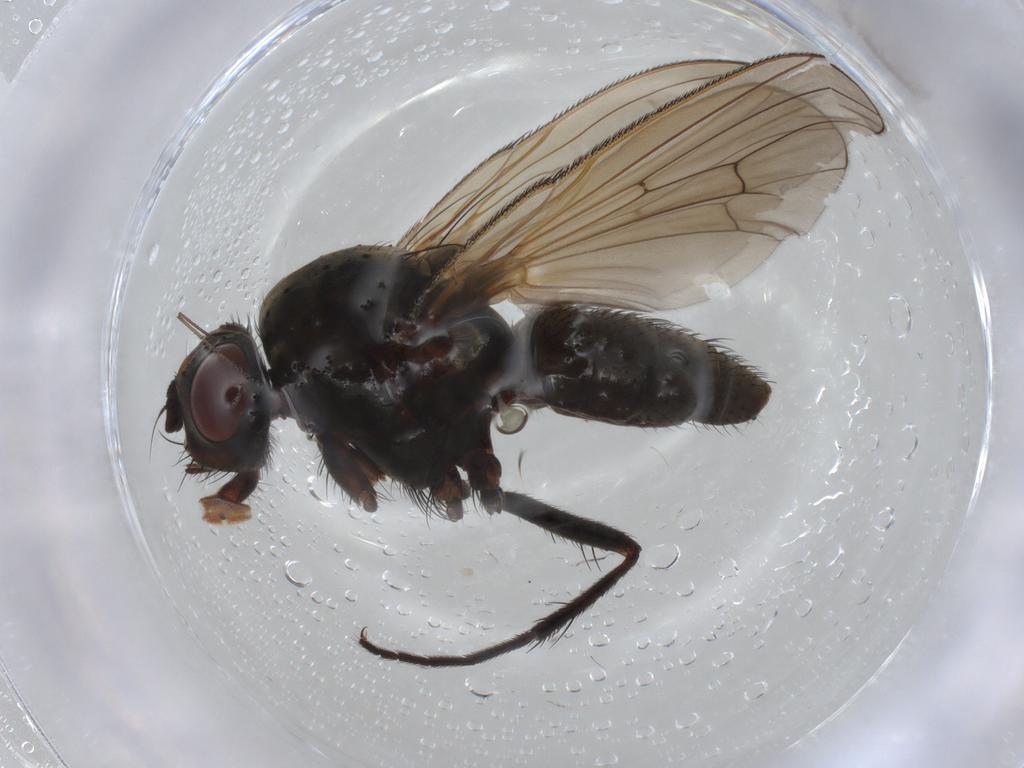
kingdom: Animalia
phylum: Arthropoda
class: Insecta
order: Diptera
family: Anthomyiidae
